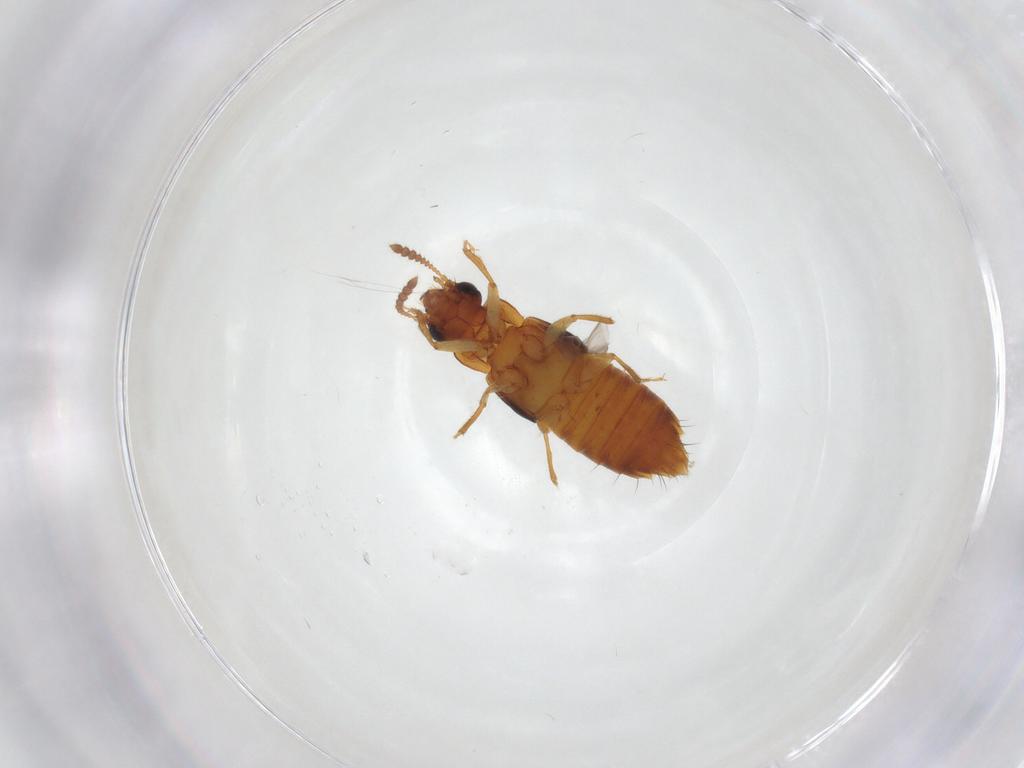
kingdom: Animalia
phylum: Arthropoda
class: Insecta
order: Coleoptera
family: Staphylinidae
